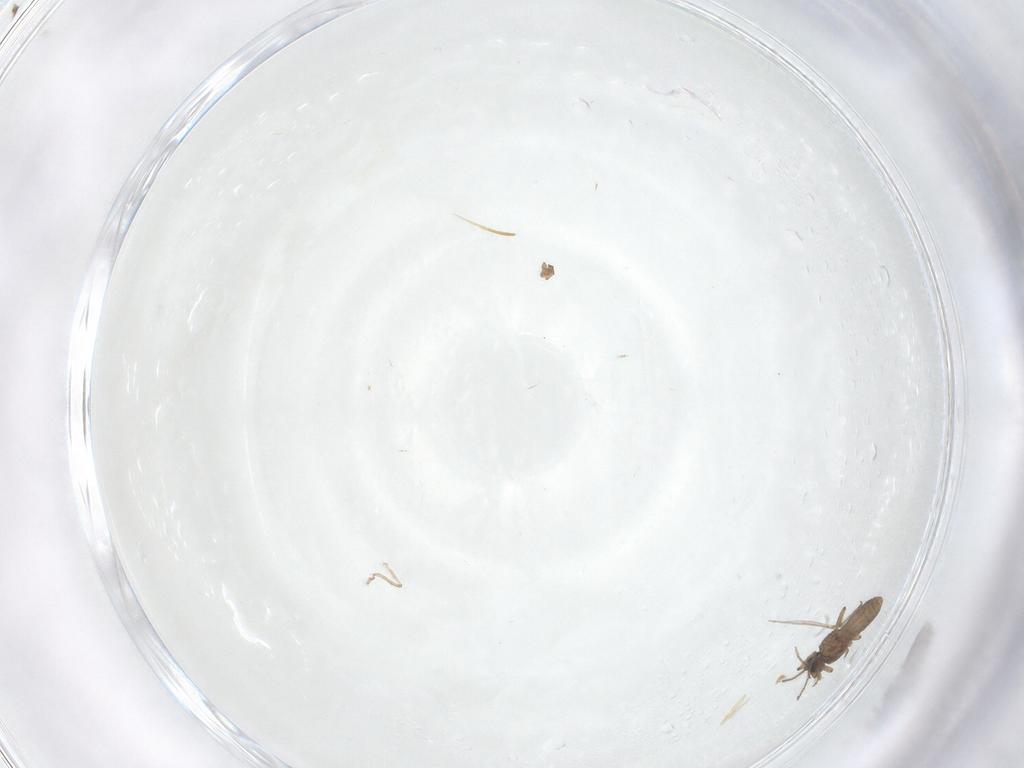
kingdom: Animalia
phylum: Arthropoda
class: Insecta
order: Diptera
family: Ceratopogonidae
